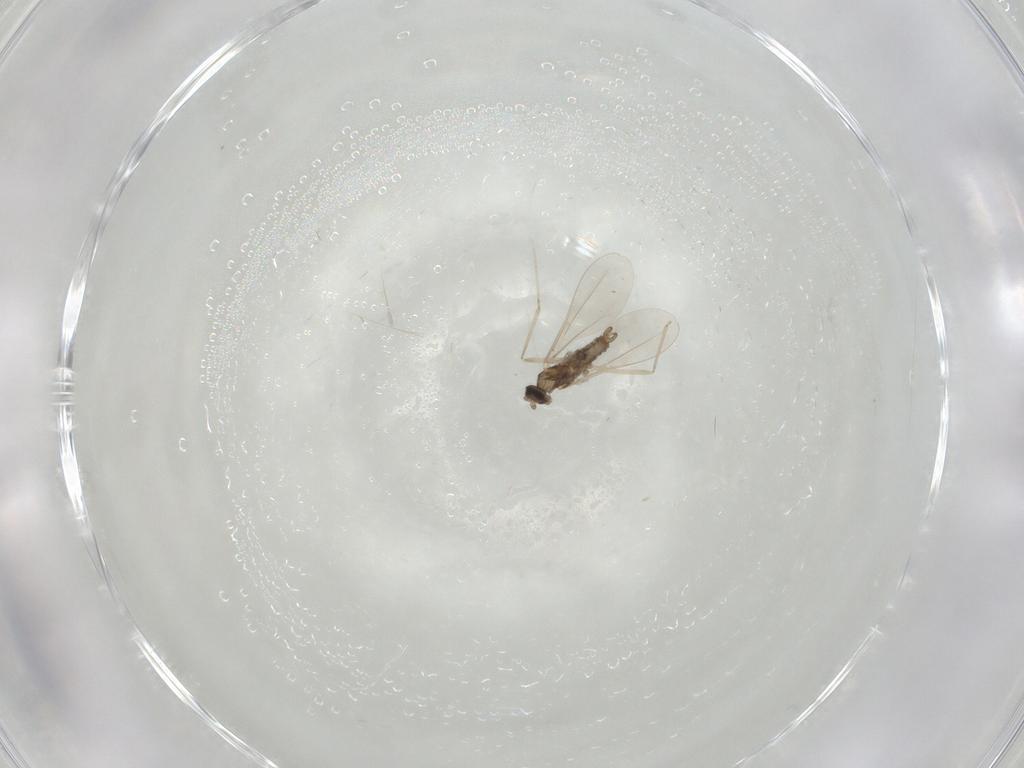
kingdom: Animalia
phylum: Arthropoda
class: Insecta
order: Diptera
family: Cecidomyiidae
